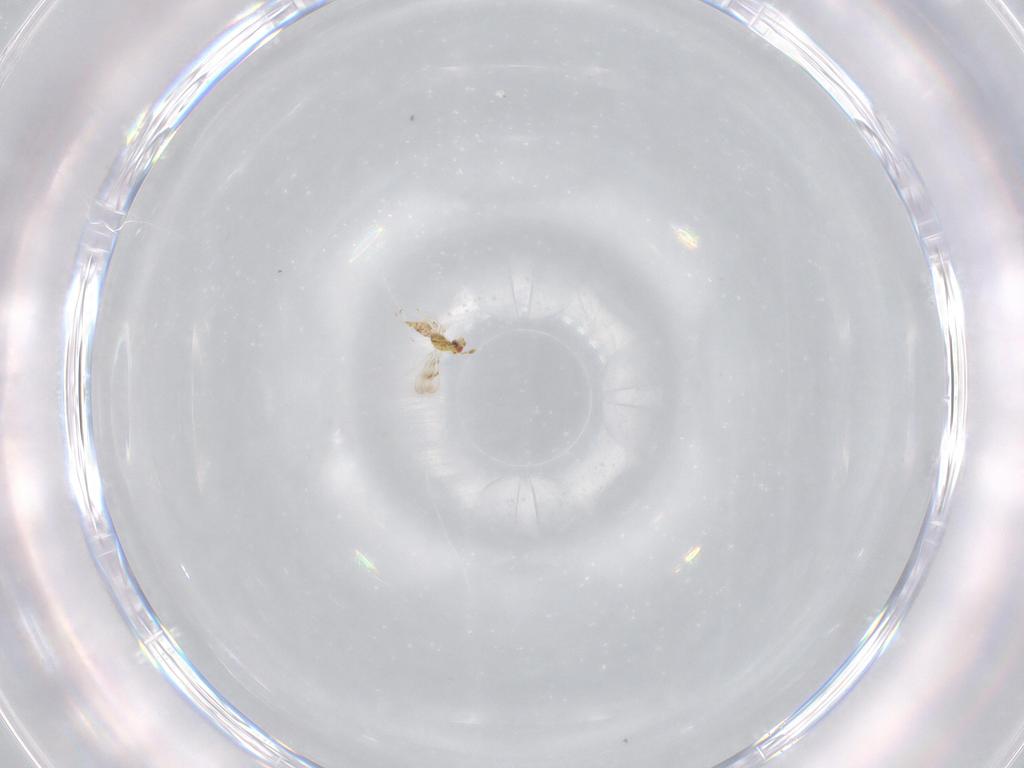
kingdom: Animalia
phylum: Arthropoda
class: Insecta
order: Hymenoptera
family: Eulophidae
